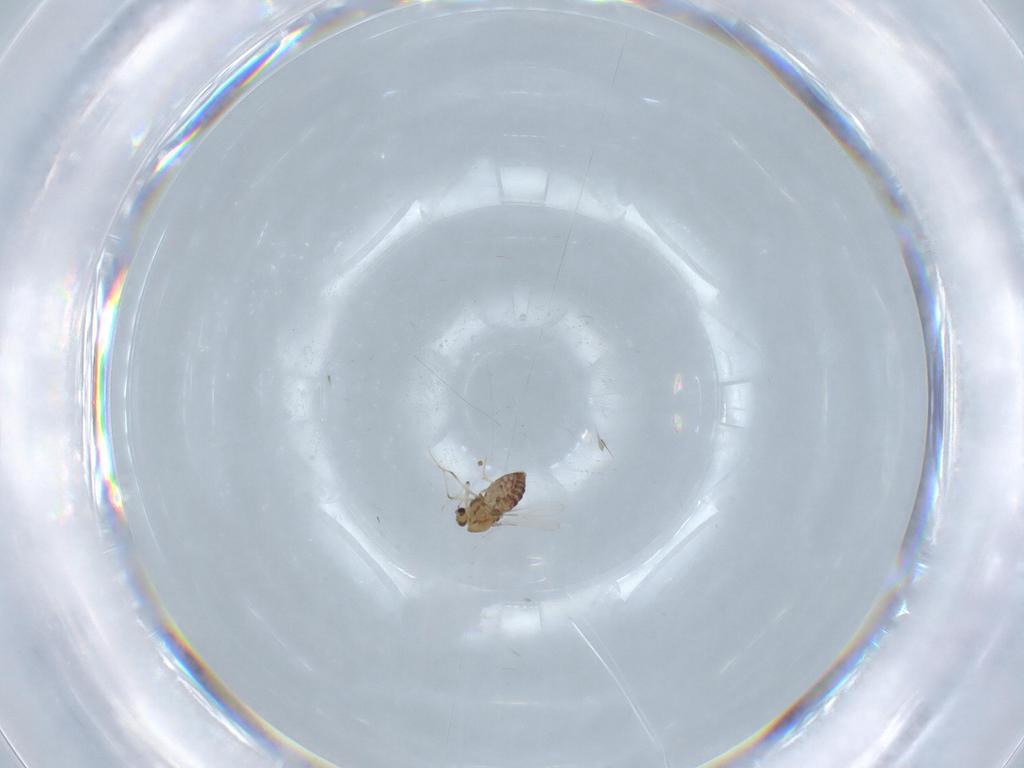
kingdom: Animalia
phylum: Arthropoda
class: Insecta
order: Diptera
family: Chironomidae
